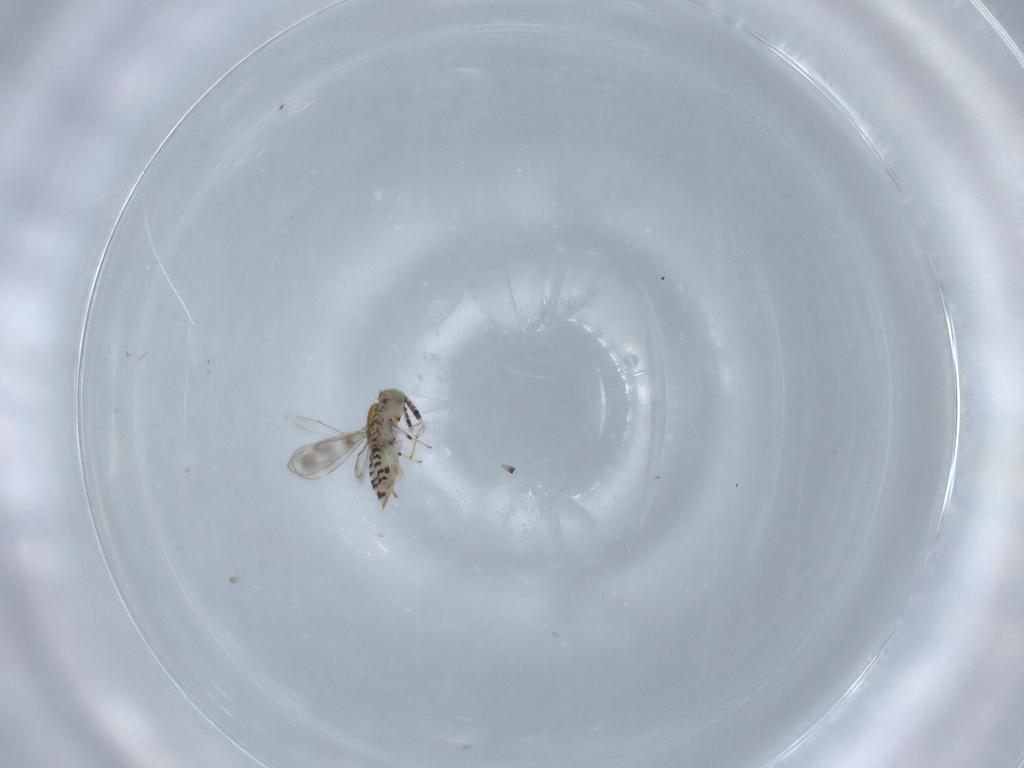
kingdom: Animalia
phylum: Arthropoda
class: Insecta
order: Hymenoptera
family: Aphelinidae
